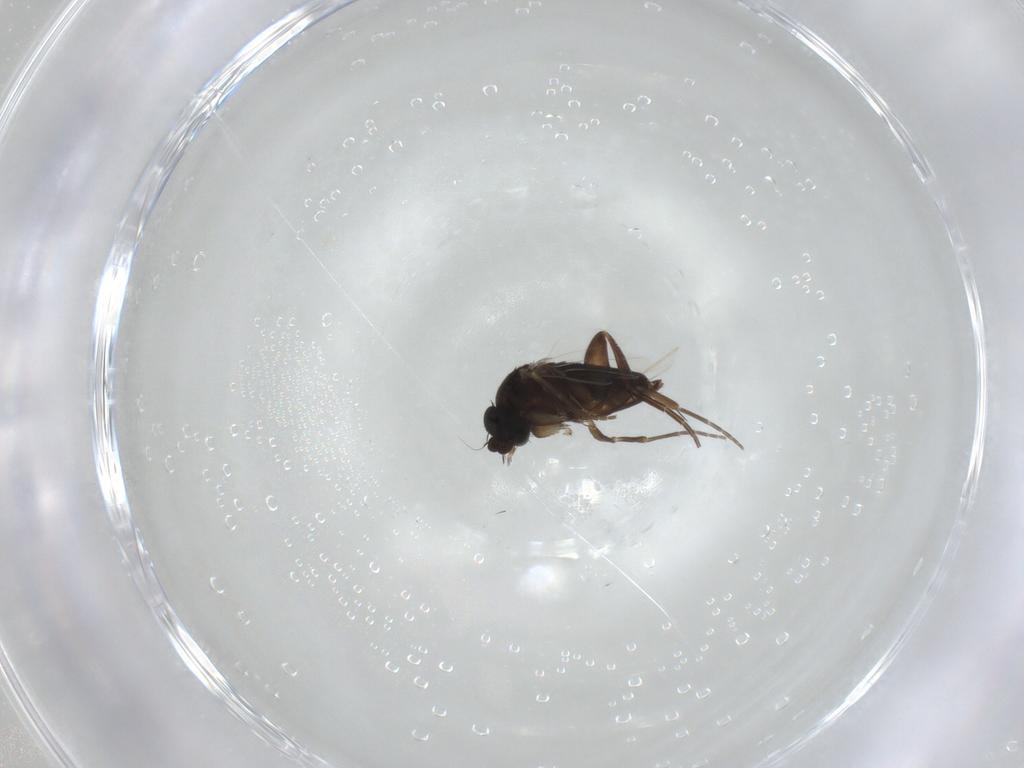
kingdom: Animalia
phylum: Arthropoda
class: Insecta
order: Diptera
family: Phoridae
